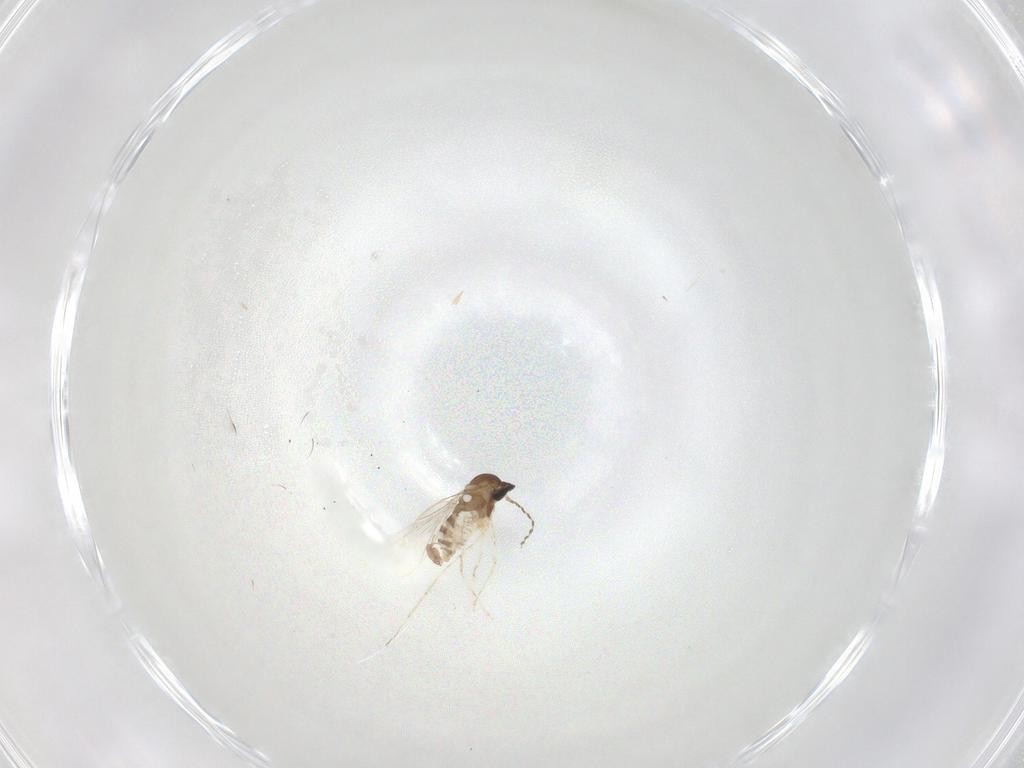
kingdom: Animalia
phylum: Arthropoda
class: Insecta
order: Diptera
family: Cecidomyiidae
